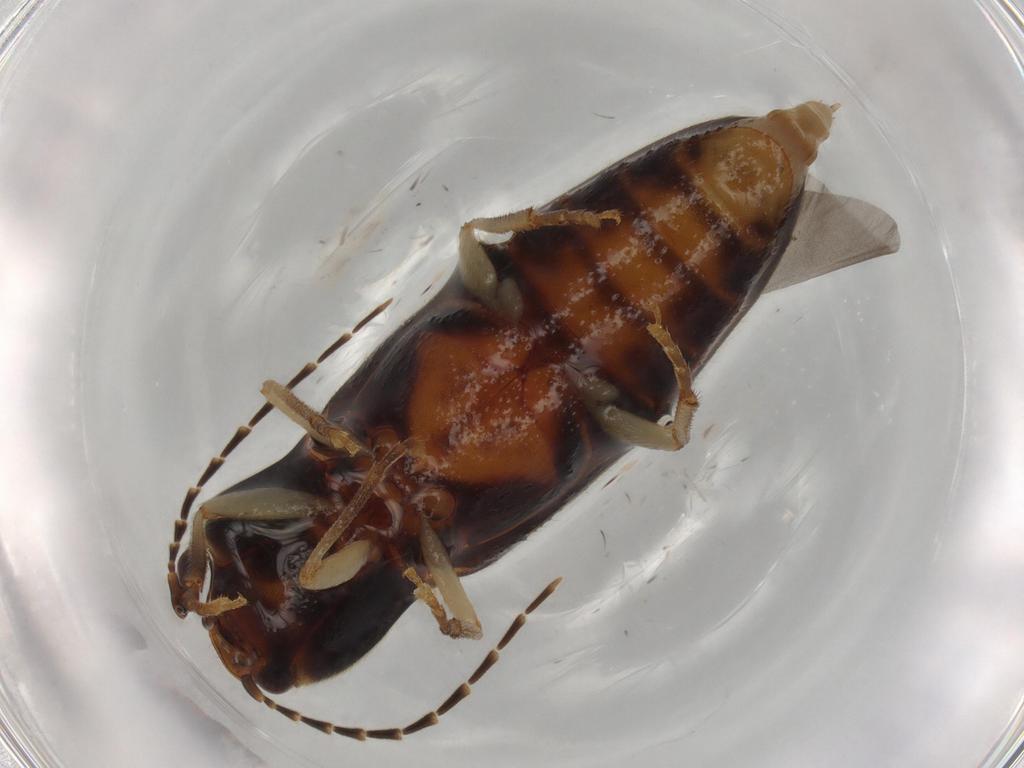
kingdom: Animalia
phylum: Arthropoda
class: Insecta
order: Coleoptera
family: Elateridae
